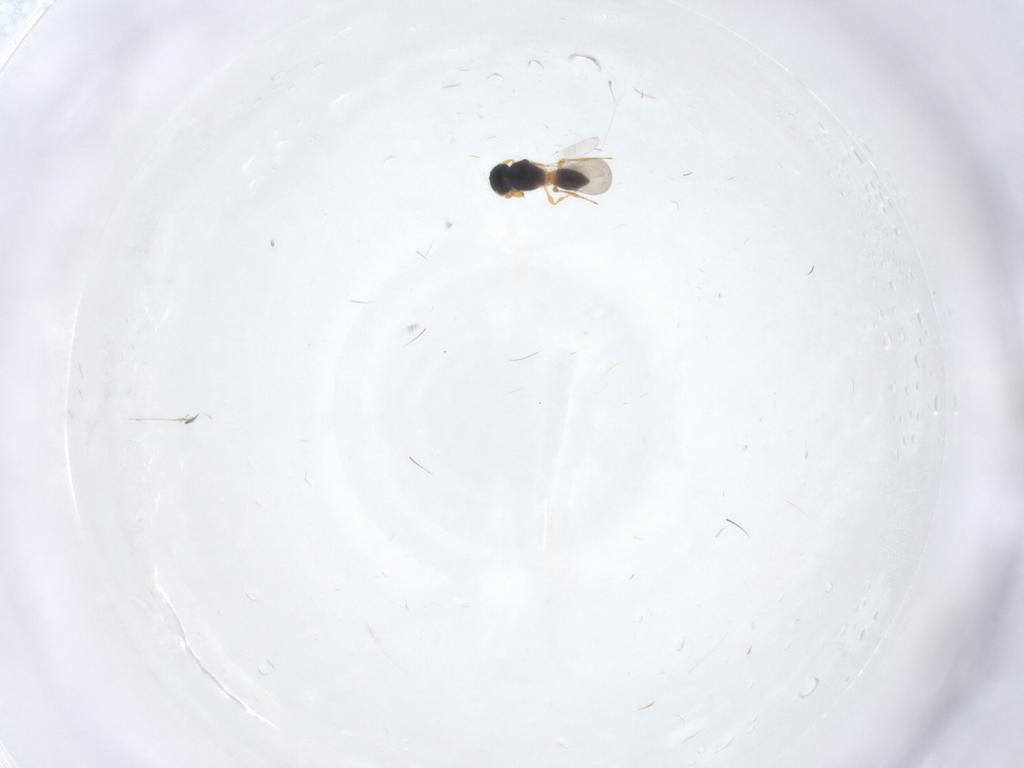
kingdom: Animalia
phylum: Arthropoda
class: Insecta
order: Hymenoptera
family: Platygastridae
